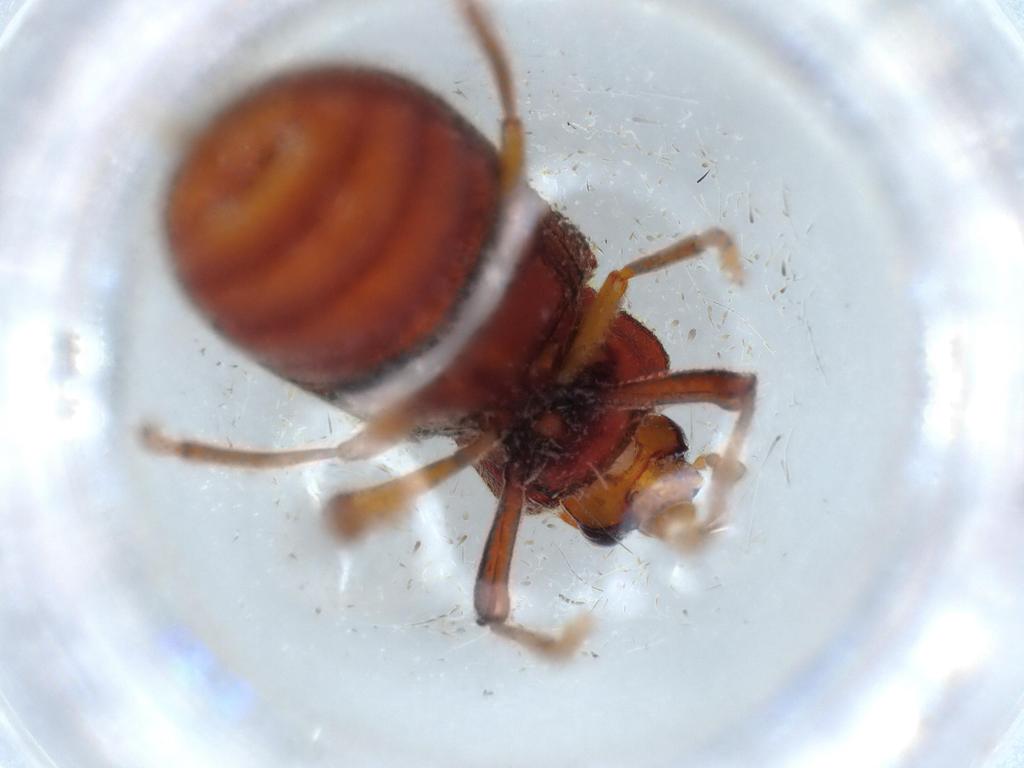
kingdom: Animalia
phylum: Arthropoda
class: Insecta
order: Coleoptera
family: Cerophytidae
